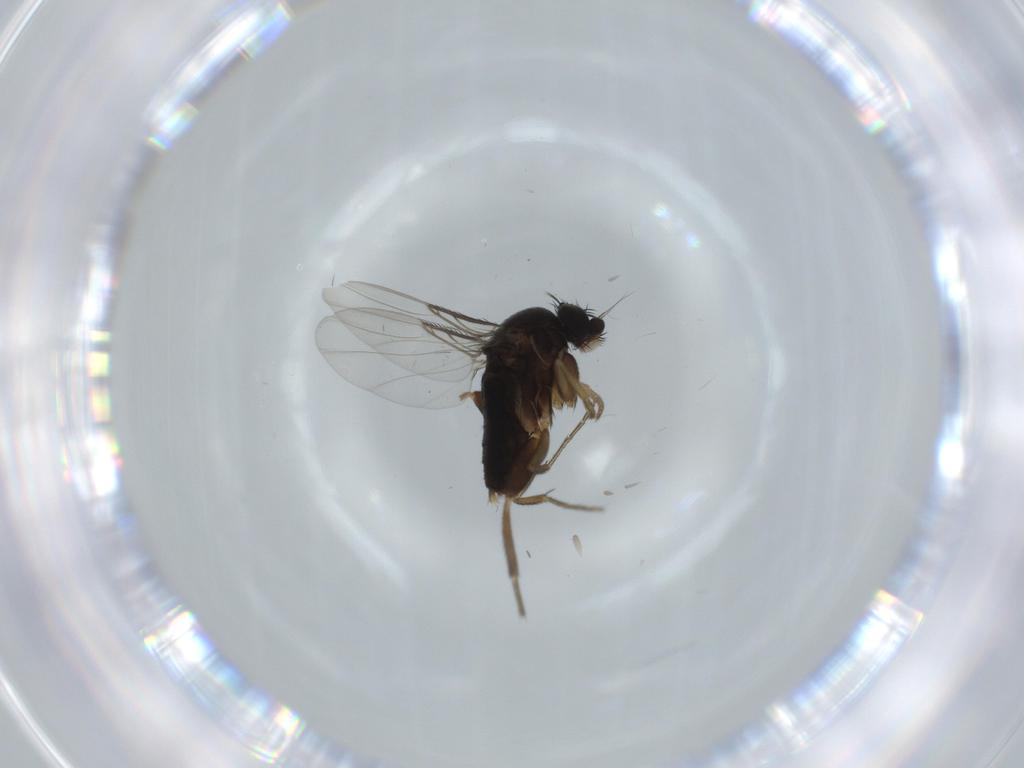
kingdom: Animalia
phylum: Arthropoda
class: Insecta
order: Diptera
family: Phoridae
